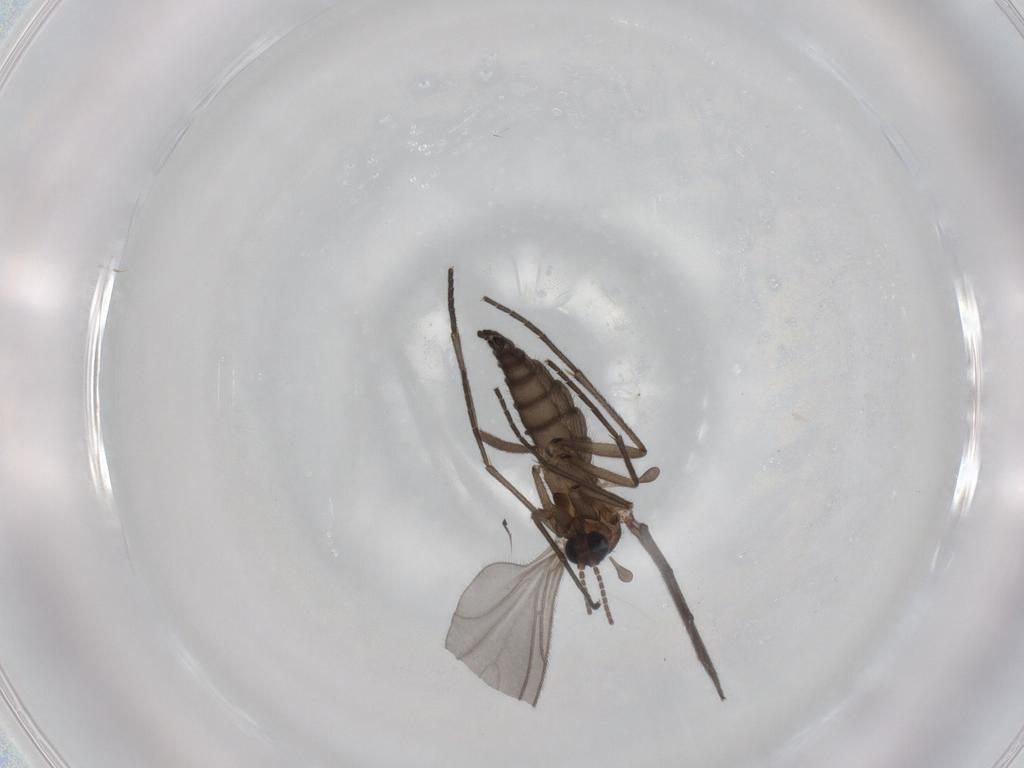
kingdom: Animalia
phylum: Arthropoda
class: Insecta
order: Diptera
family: Sciaridae
